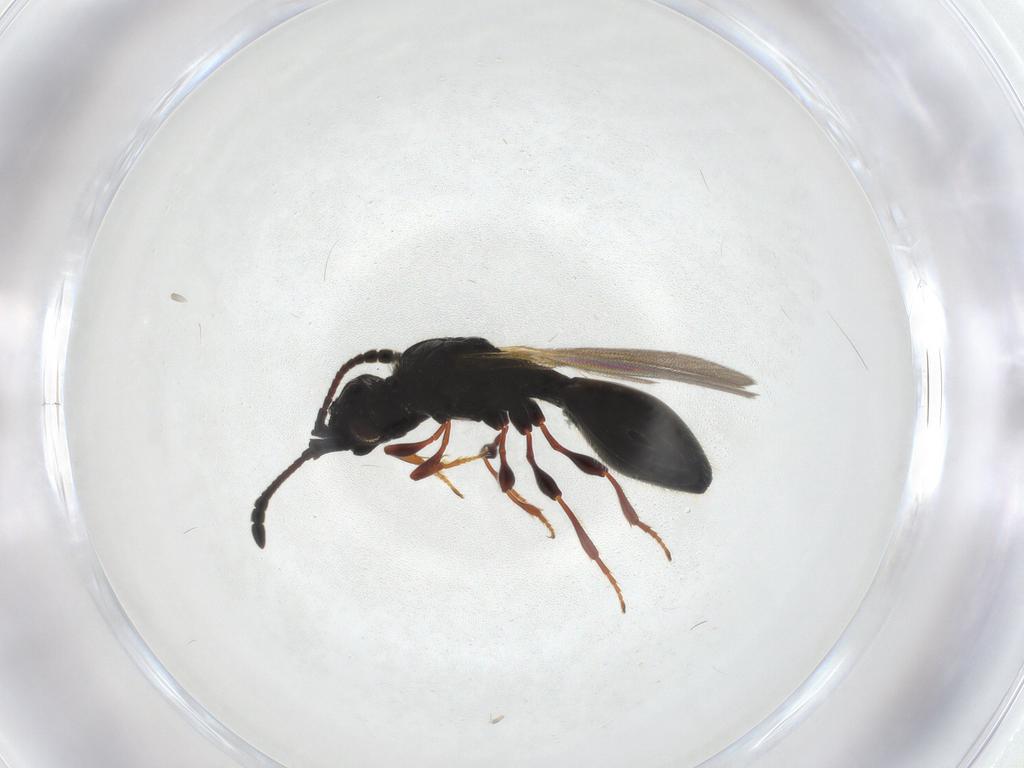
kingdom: Animalia
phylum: Arthropoda
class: Insecta
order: Hymenoptera
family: Diapriidae
